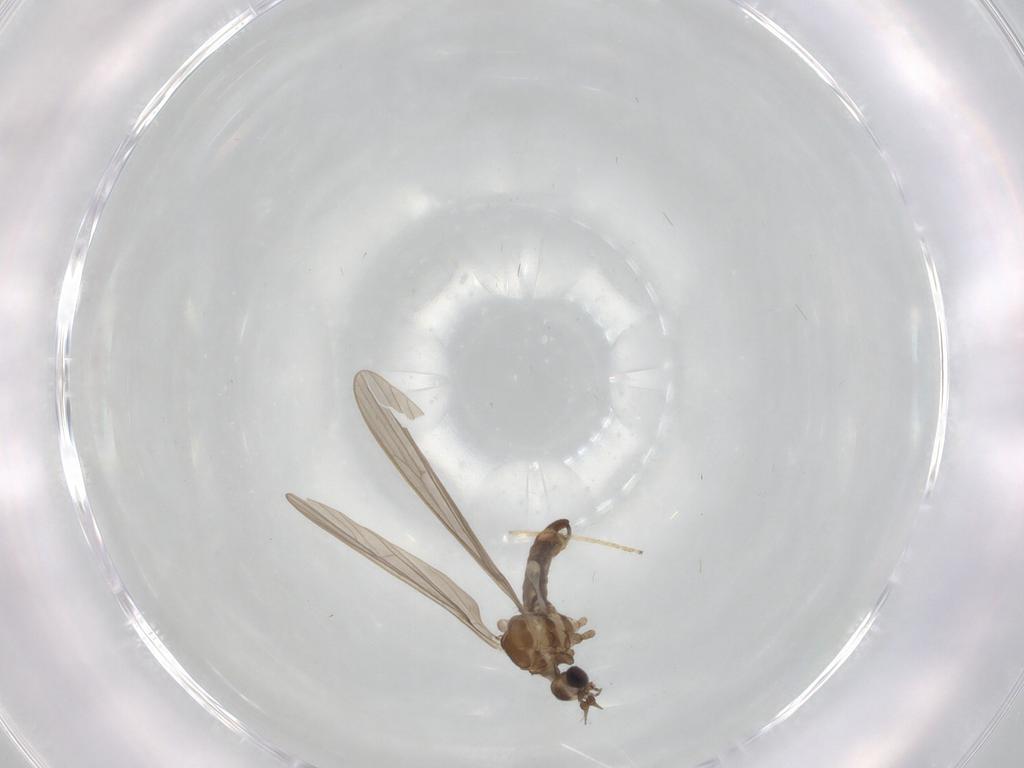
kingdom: Animalia
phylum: Arthropoda
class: Insecta
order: Diptera
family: Limoniidae
